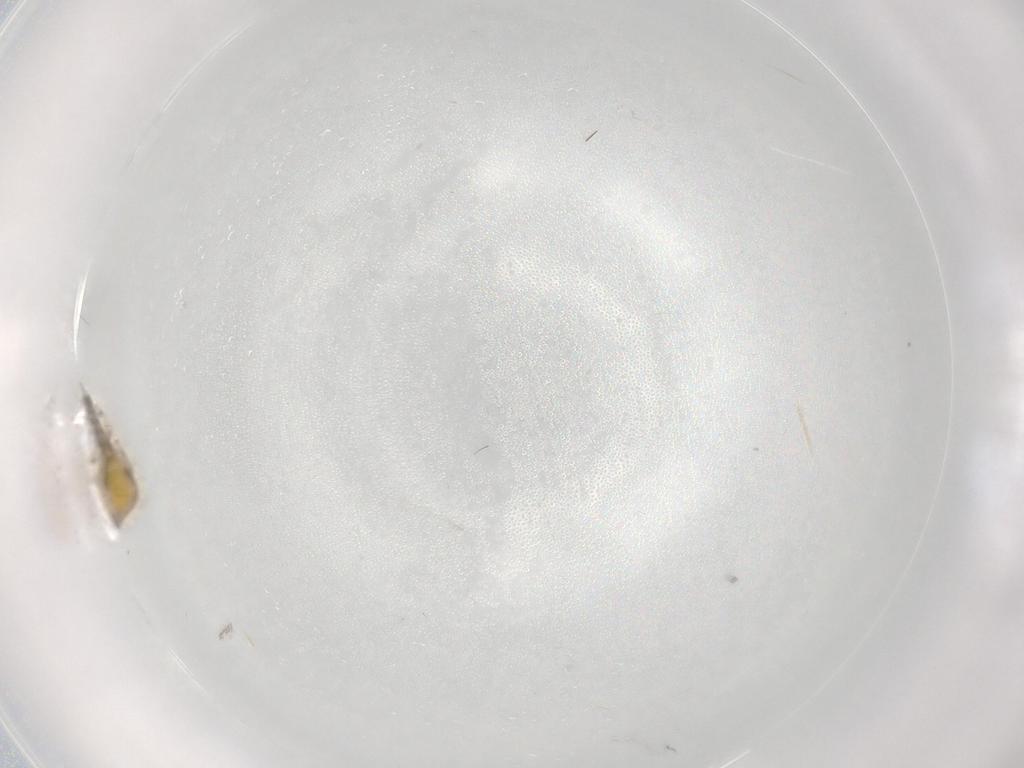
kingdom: Animalia
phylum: Arthropoda
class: Insecta
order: Diptera
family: Ceratopogonidae
